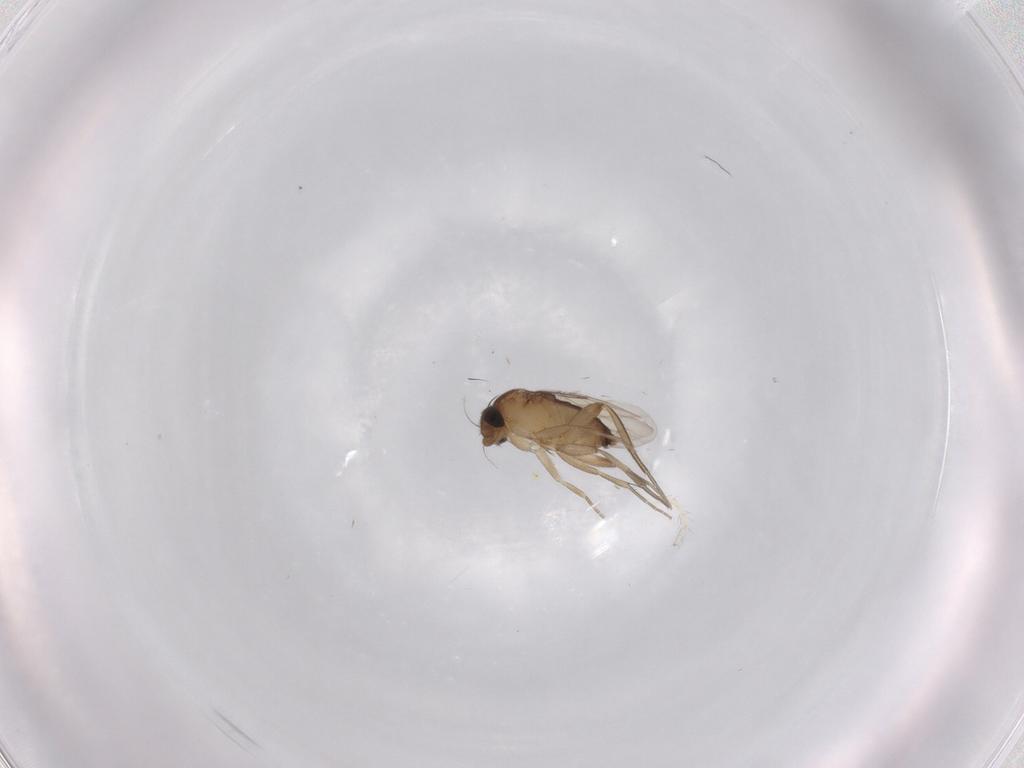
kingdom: Animalia
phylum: Arthropoda
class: Insecta
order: Diptera
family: Phoridae
